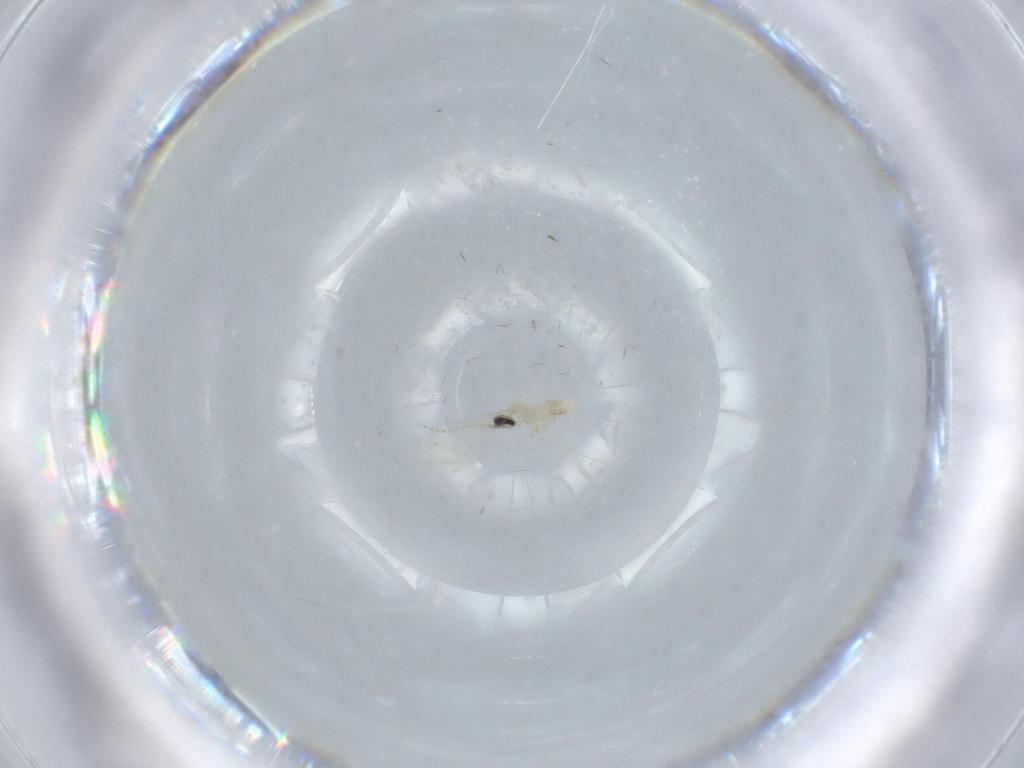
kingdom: Animalia
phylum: Arthropoda
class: Insecta
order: Diptera
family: Cecidomyiidae
